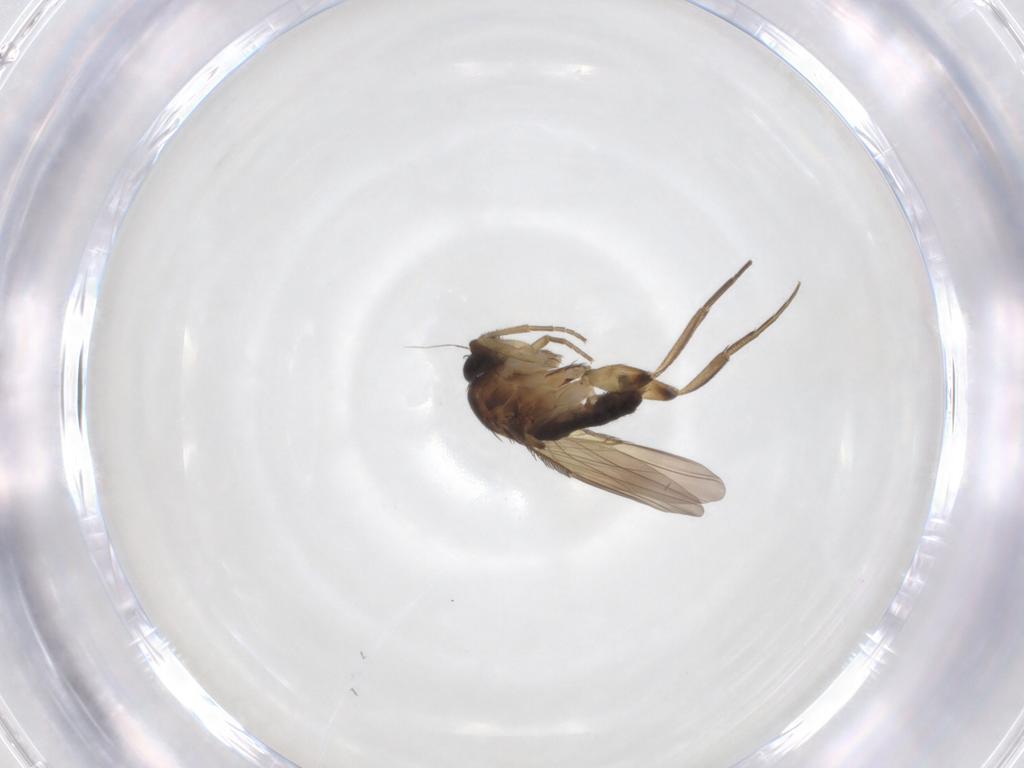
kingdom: Animalia
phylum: Arthropoda
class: Insecta
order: Diptera
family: Phoridae
